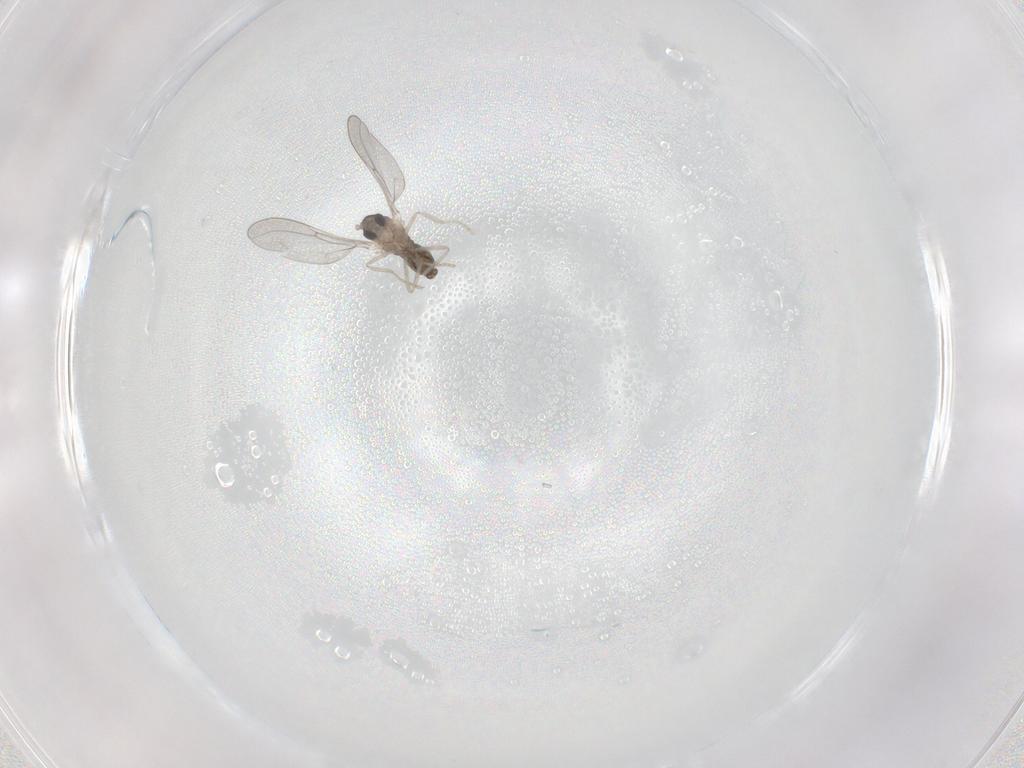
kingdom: Animalia
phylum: Arthropoda
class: Insecta
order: Diptera
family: Cecidomyiidae
